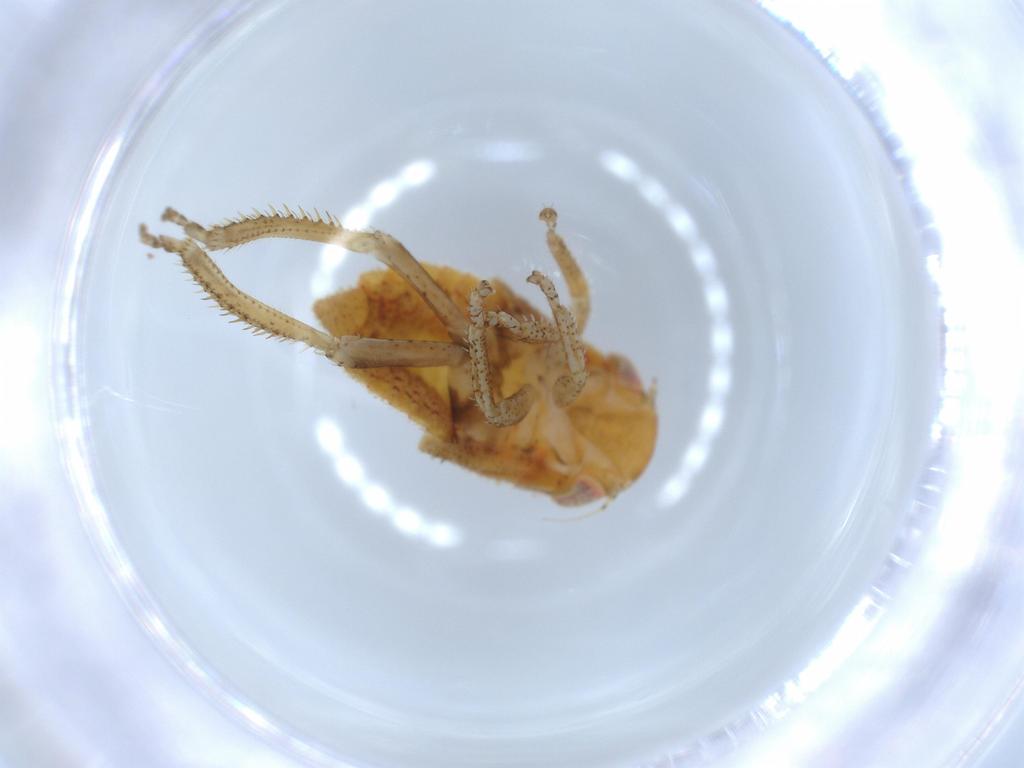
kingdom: Animalia
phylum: Arthropoda
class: Insecta
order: Hemiptera
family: Cicadellidae
